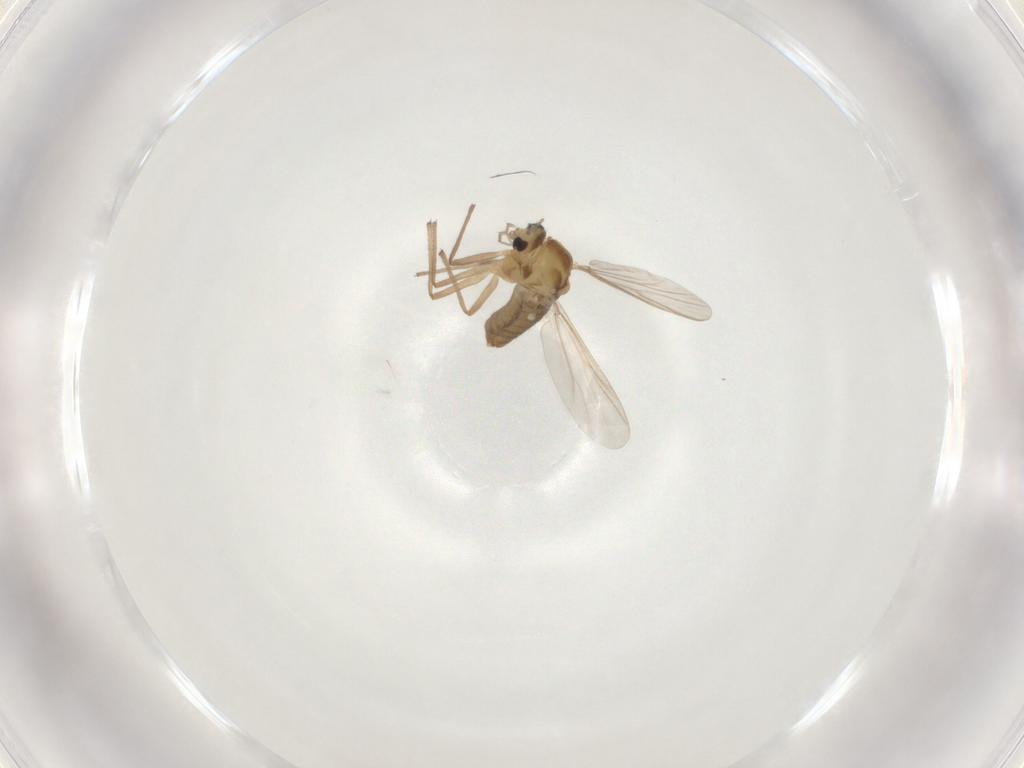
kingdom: Animalia
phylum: Arthropoda
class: Insecta
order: Diptera
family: Chironomidae
